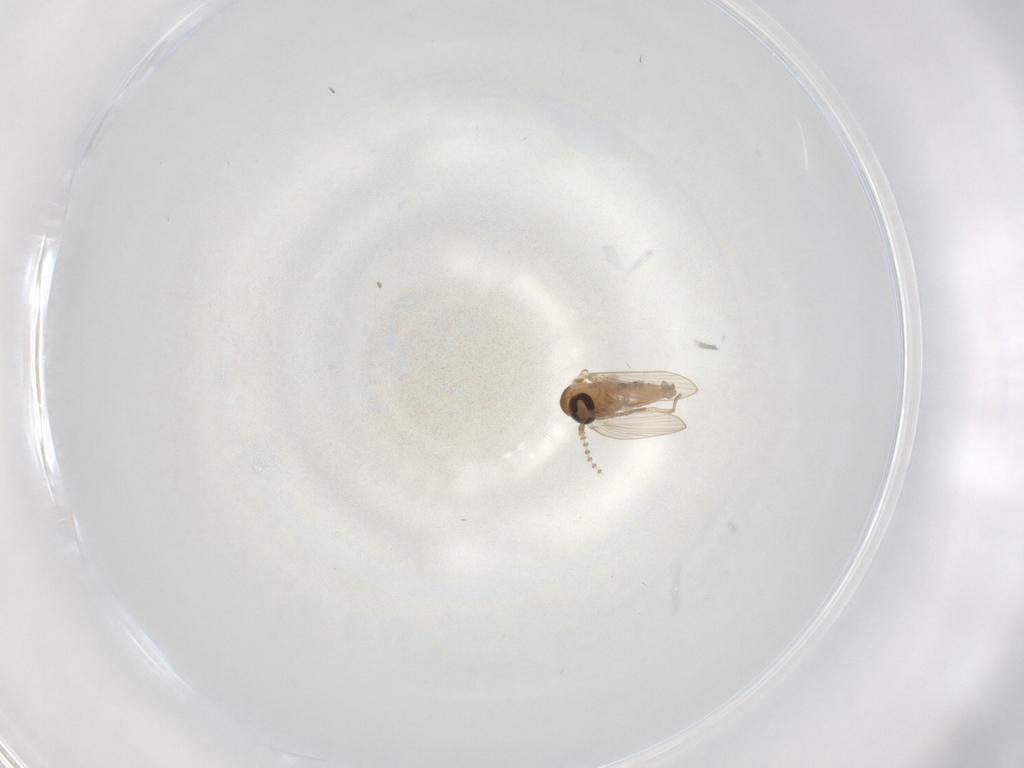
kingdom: Animalia
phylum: Arthropoda
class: Insecta
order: Diptera
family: Psychodidae
